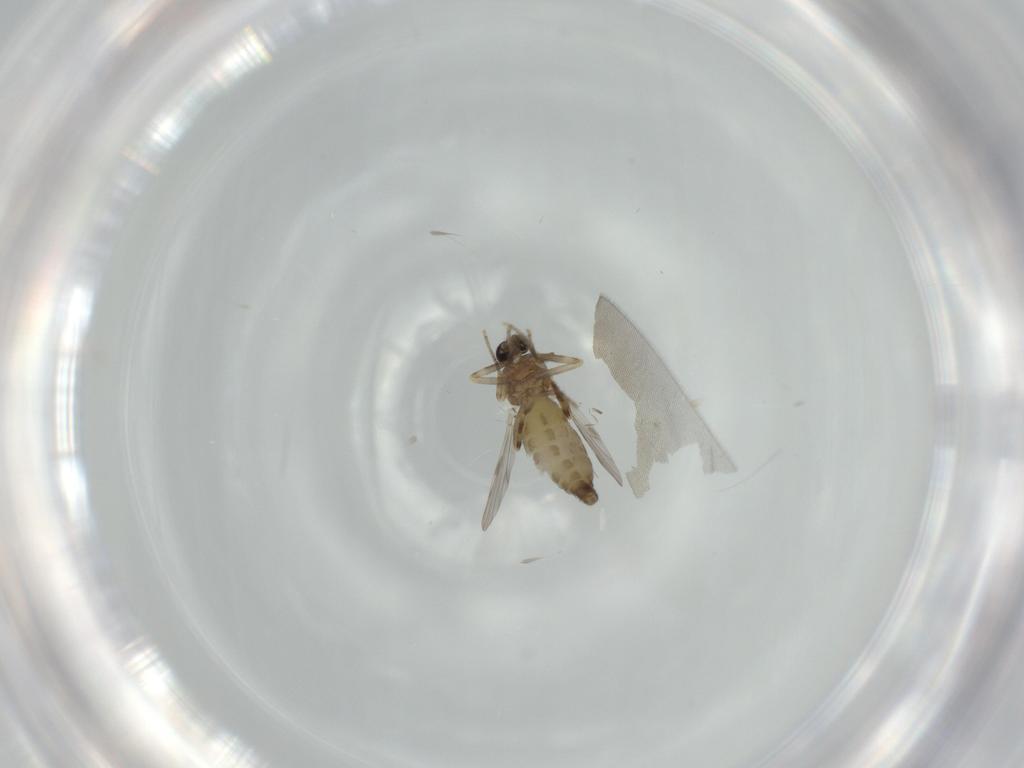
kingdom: Animalia
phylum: Arthropoda
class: Insecta
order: Diptera
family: Ceratopogonidae
